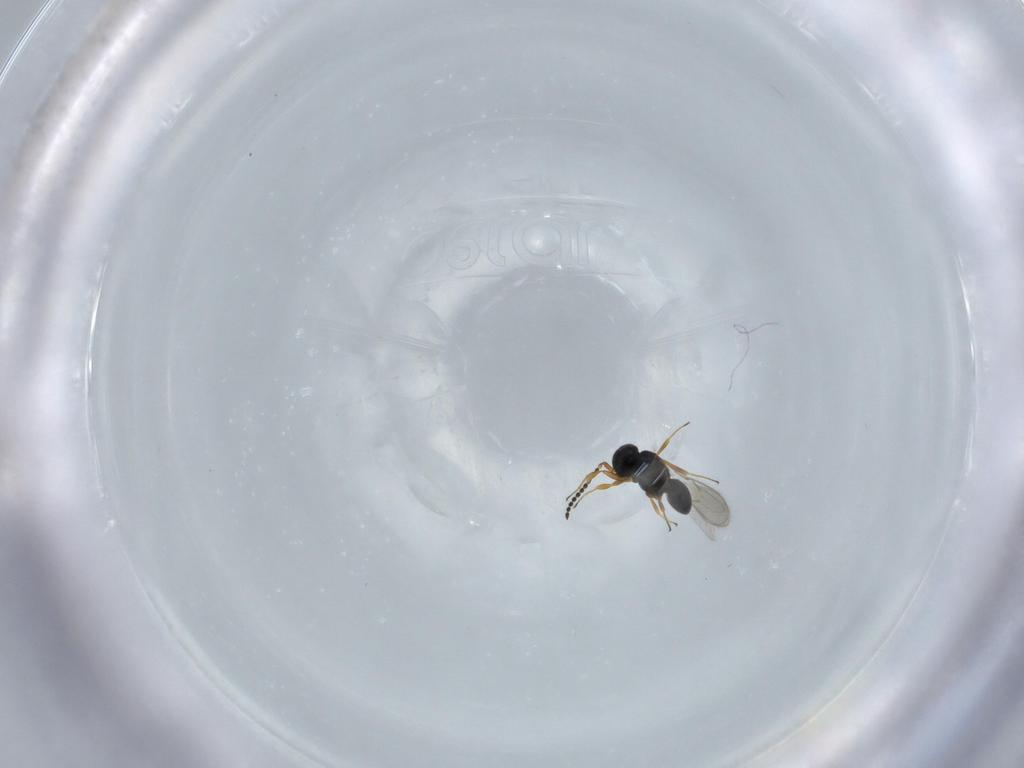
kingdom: Animalia
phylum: Arthropoda
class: Insecta
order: Hymenoptera
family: Scelionidae
